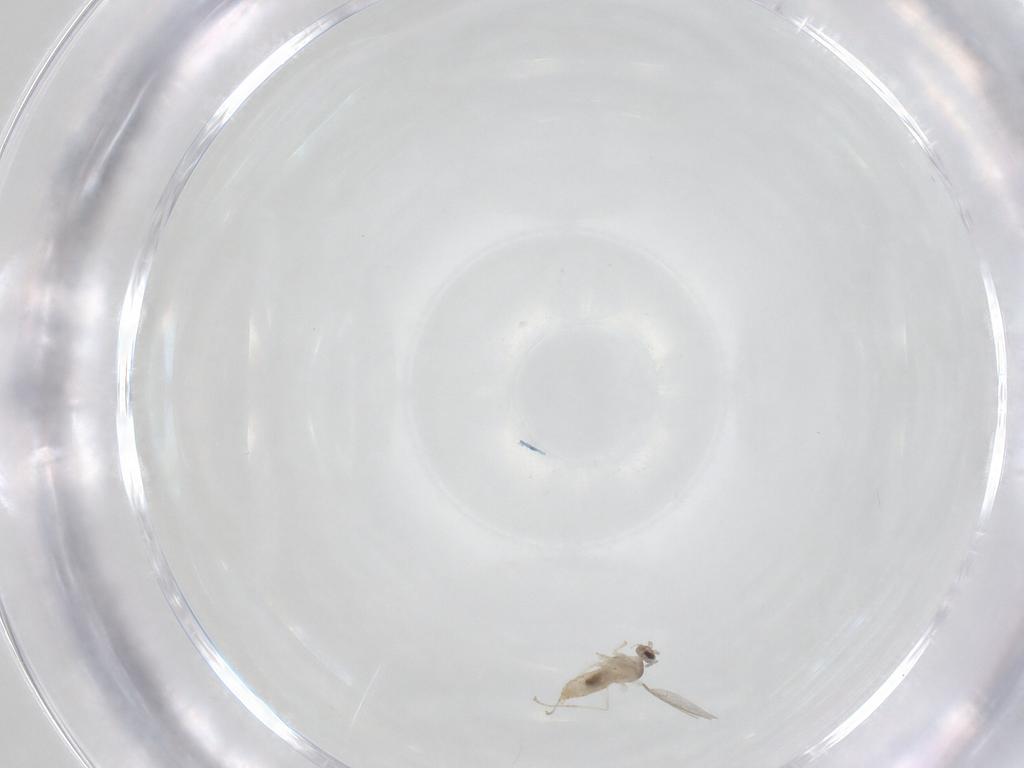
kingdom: Animalia
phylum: Arthropoda
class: Insecta
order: Diptera
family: Cecidomyiidae
